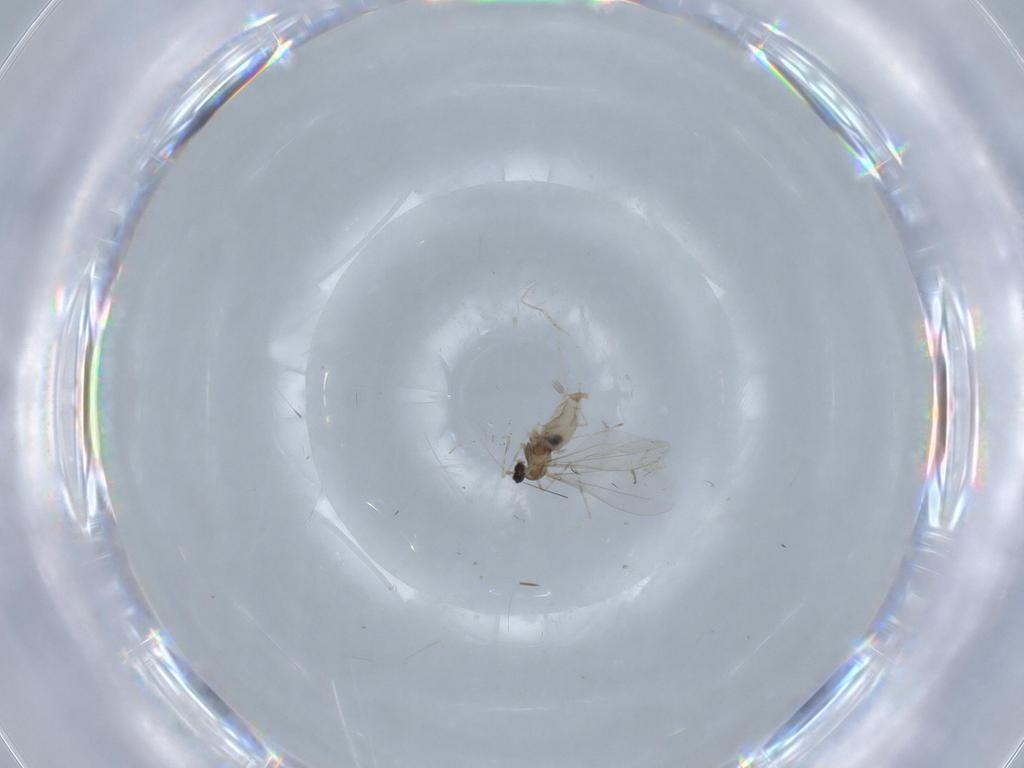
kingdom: Animalia
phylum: Arthropoda
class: Insecta
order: Diptera
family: Cecidomyiidae
